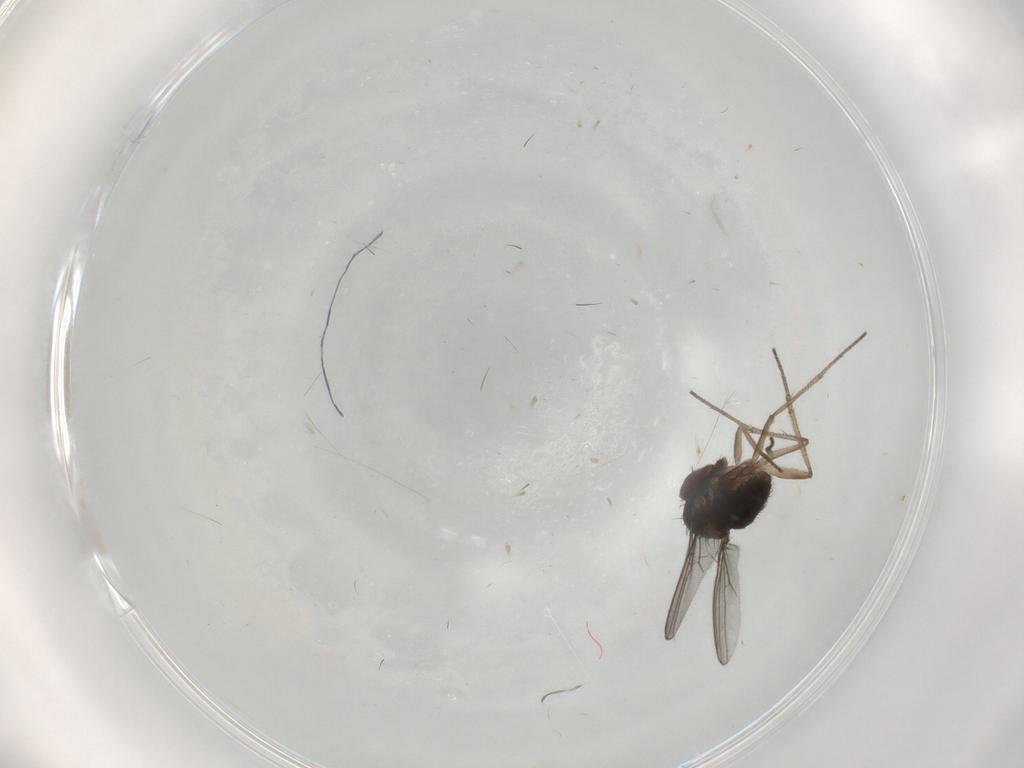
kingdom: Animalia
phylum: Arthropoda
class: Insecta
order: Diptera
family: Dolichopodidae
